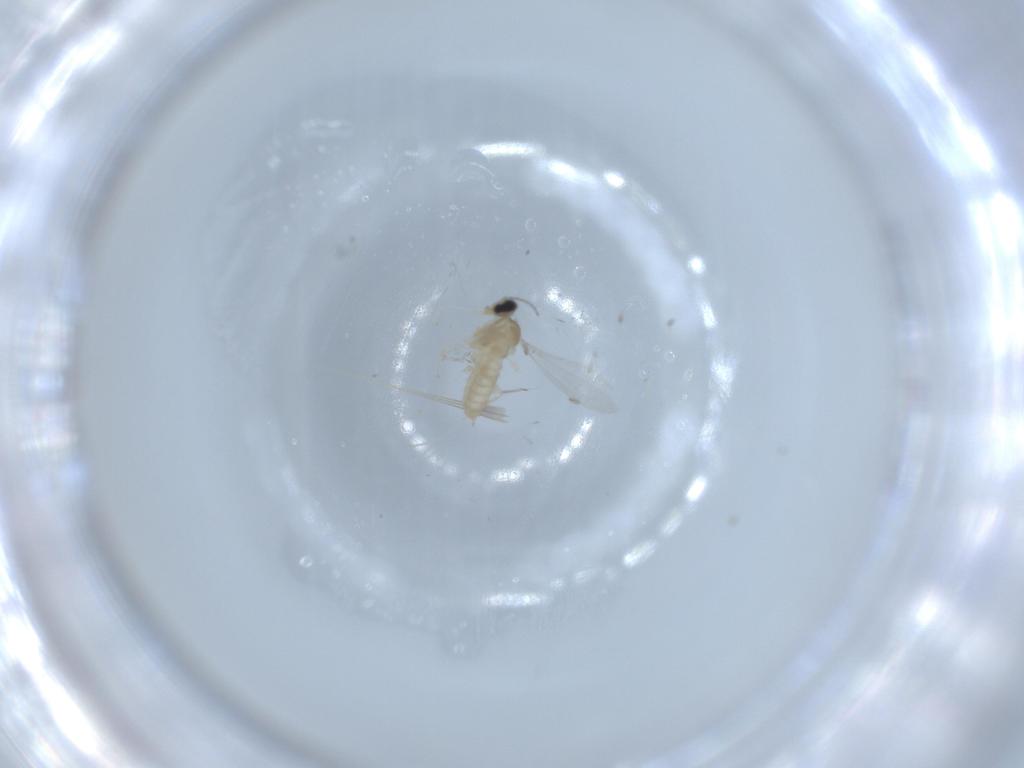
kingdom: Animalia
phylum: Arthropoda
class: Insecta
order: Diptera
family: Cecidomyiidae
